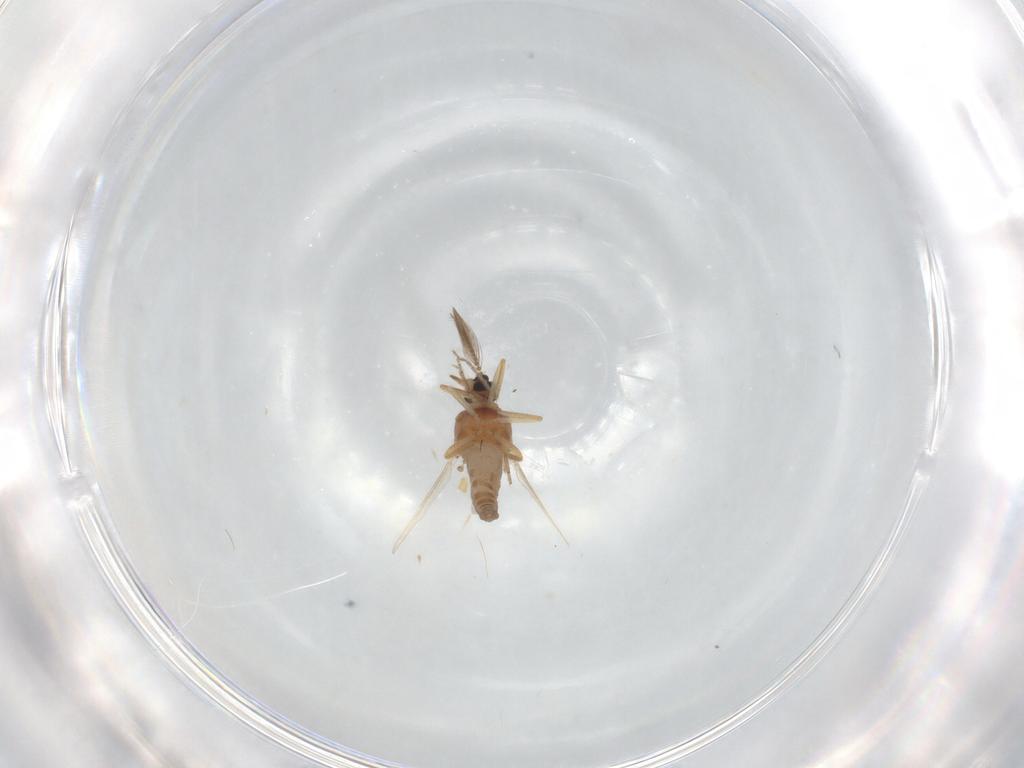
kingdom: Animalia
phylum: Arthropoda
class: Insecta
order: Diptera
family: Ceratopogonidae
